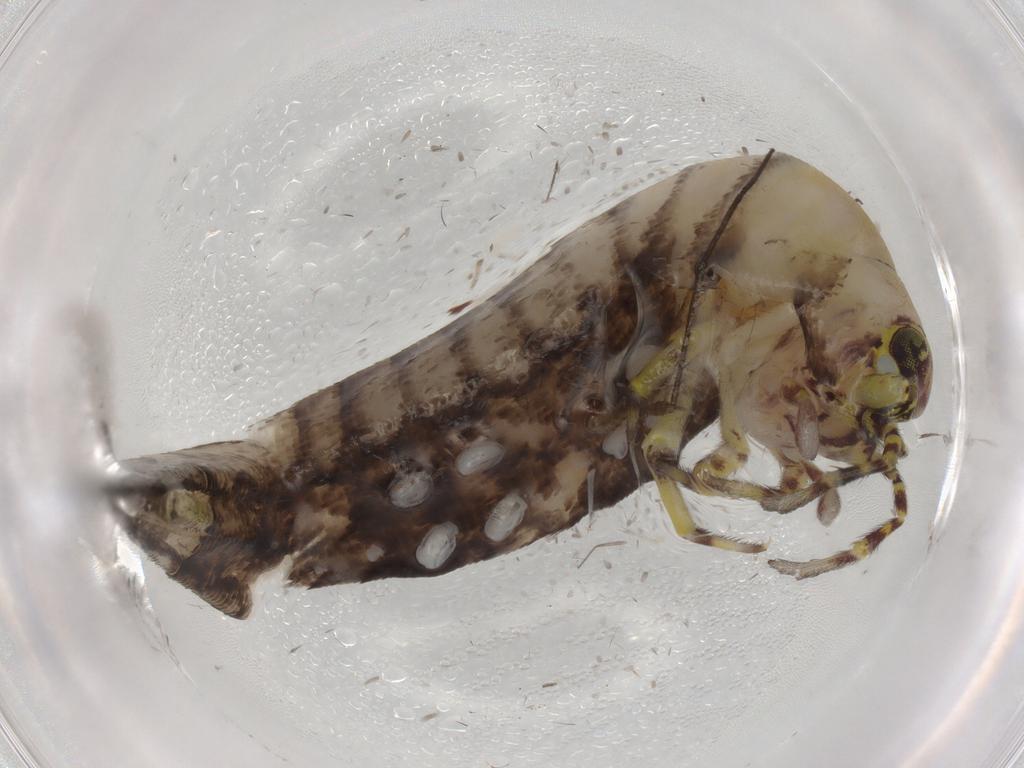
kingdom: Animalia
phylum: Arthropoda
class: Insecta
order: Archaeognatha
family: Machilidae
